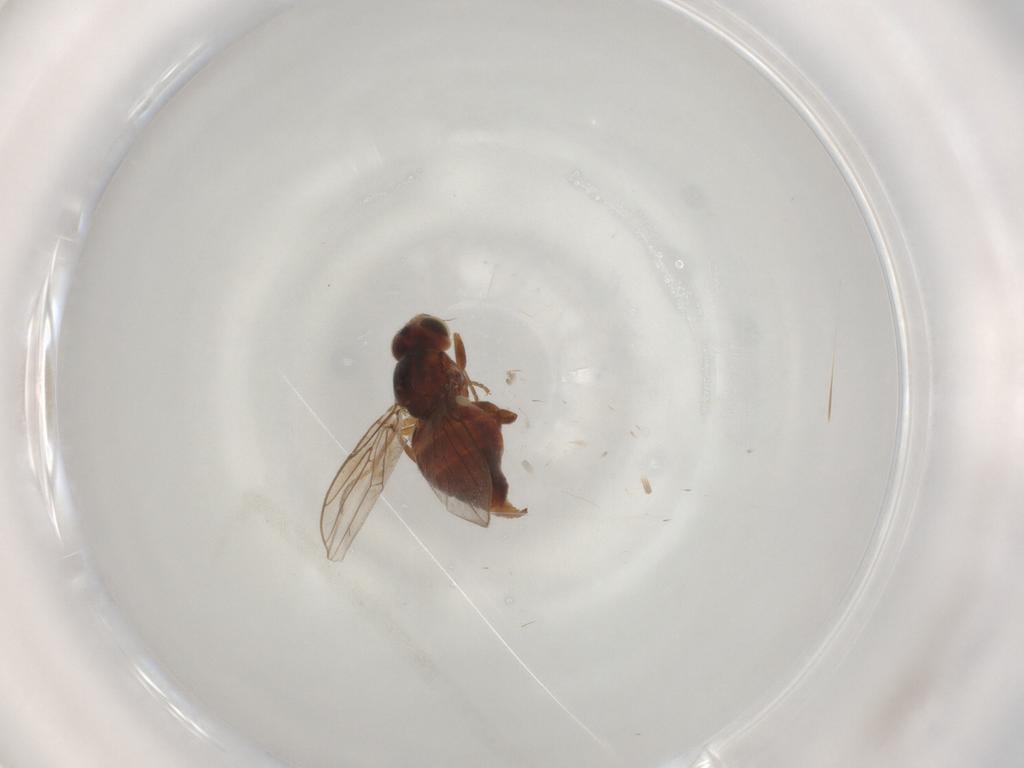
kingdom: Animalia
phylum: Arthropoda
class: Insecta
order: Diptera
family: Chloropidae
